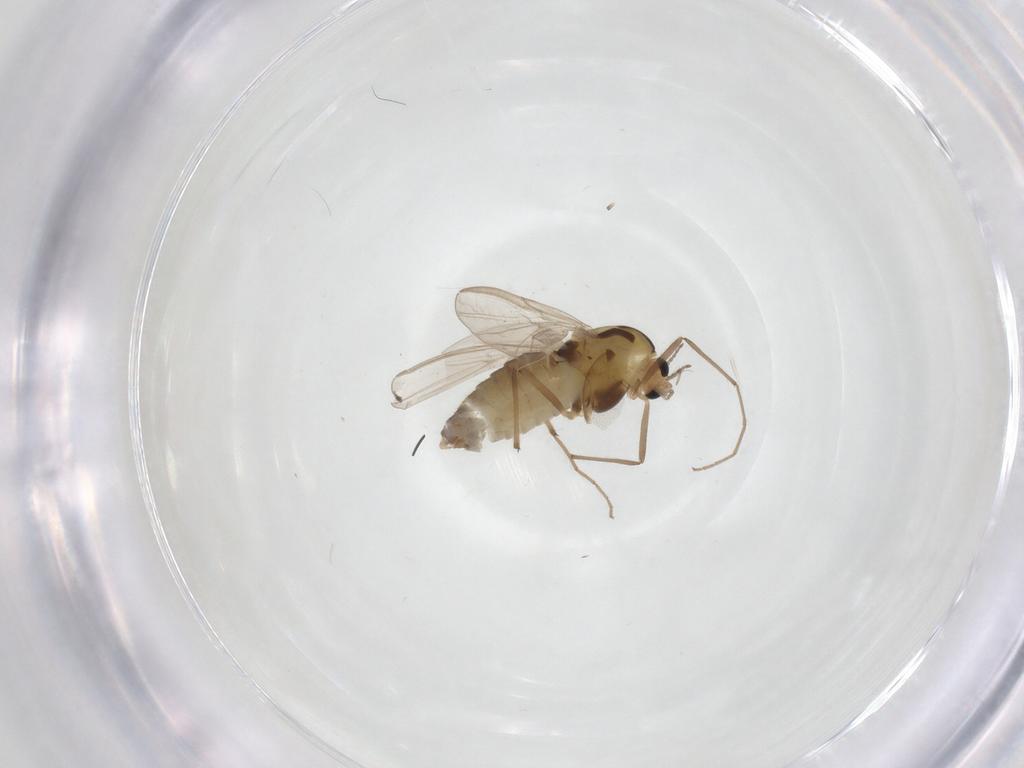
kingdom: Animalia
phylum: Arthropoda
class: Insecta
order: Diptera
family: Chironomidae
